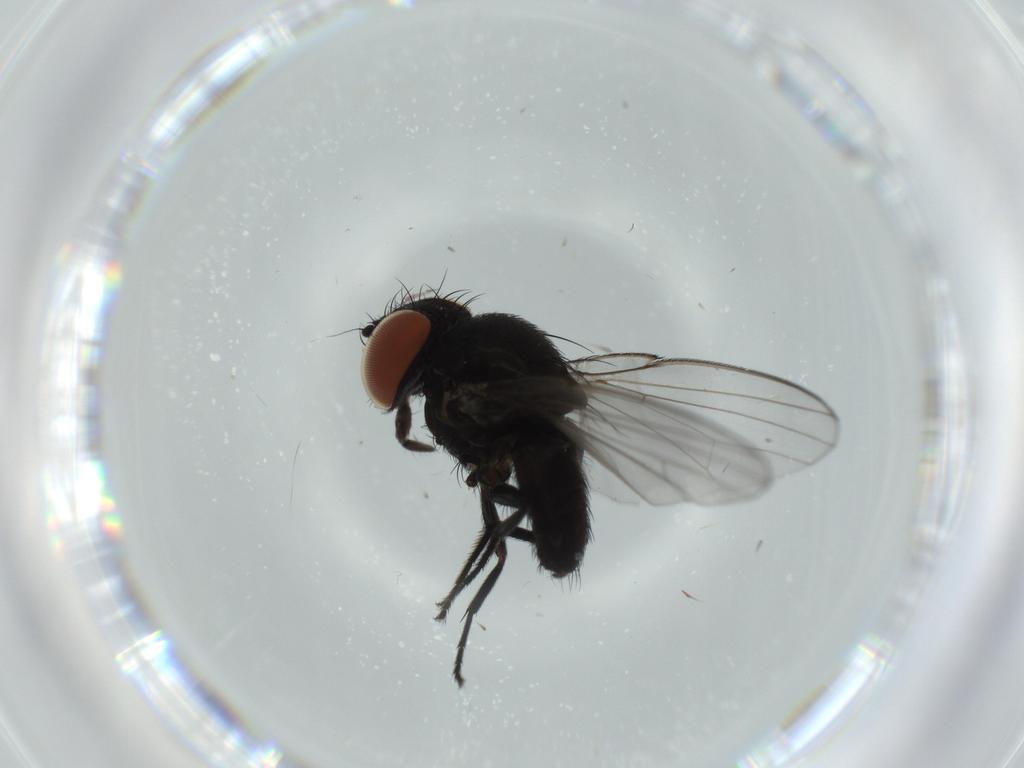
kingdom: Animalia
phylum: Arthropoda
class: Insecta
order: Diptera
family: Milichiidae
